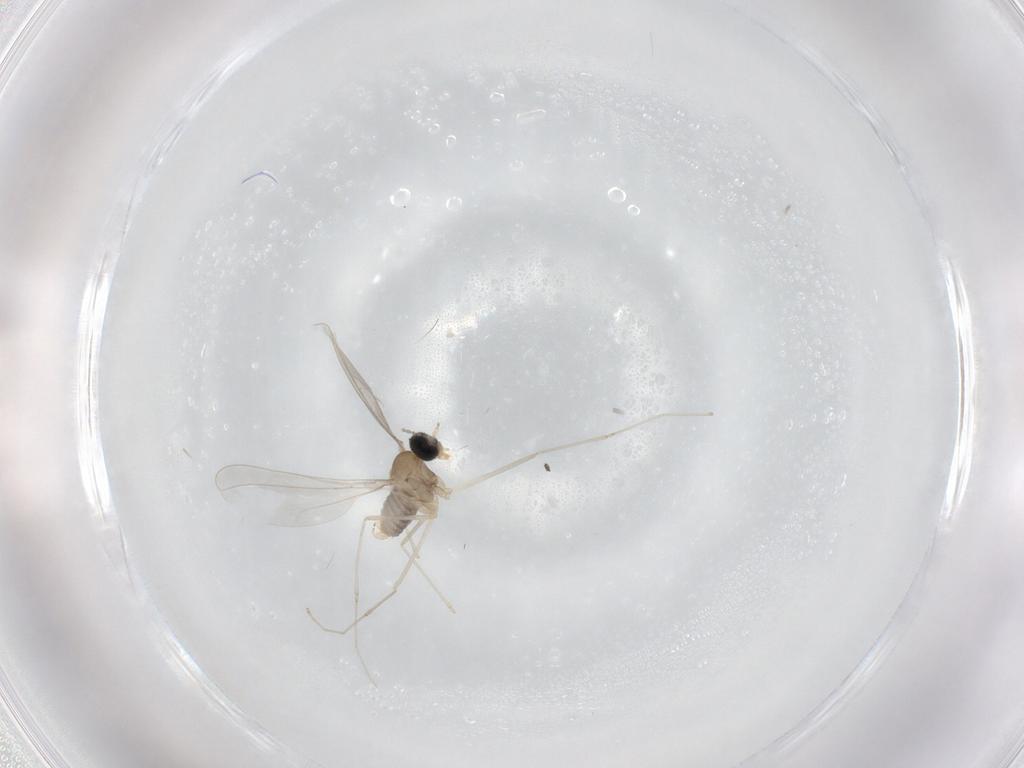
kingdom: Animalia
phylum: Arthropoda
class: Insecta
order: Diptera
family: Cecidomyiidae
